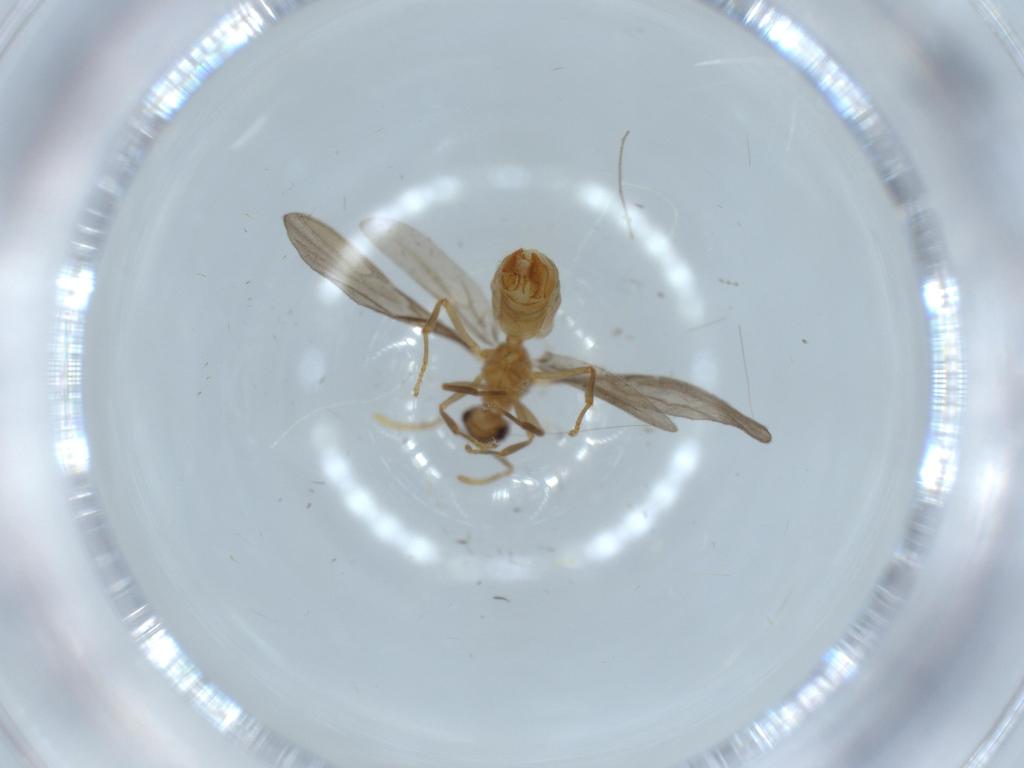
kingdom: Animalia
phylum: Arthropoda
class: Insecta
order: Hymenoptera
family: Formicidae
